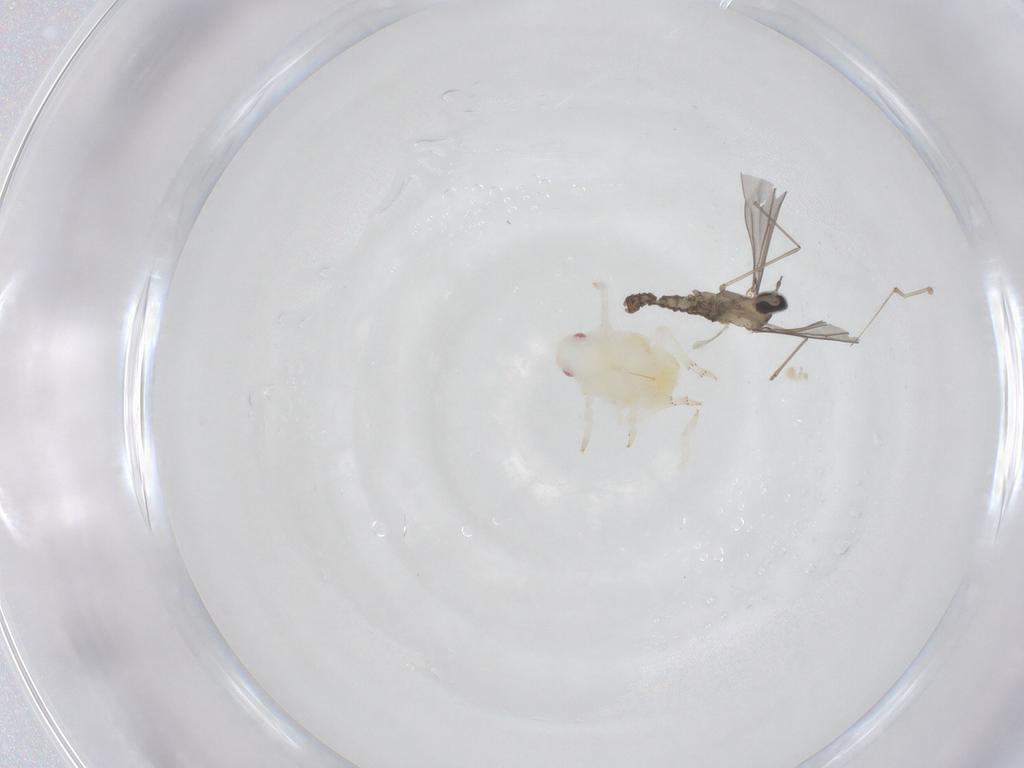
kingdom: Animalia
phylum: Arthropoda
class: Insecta
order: Hemiptera
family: Flatidae
